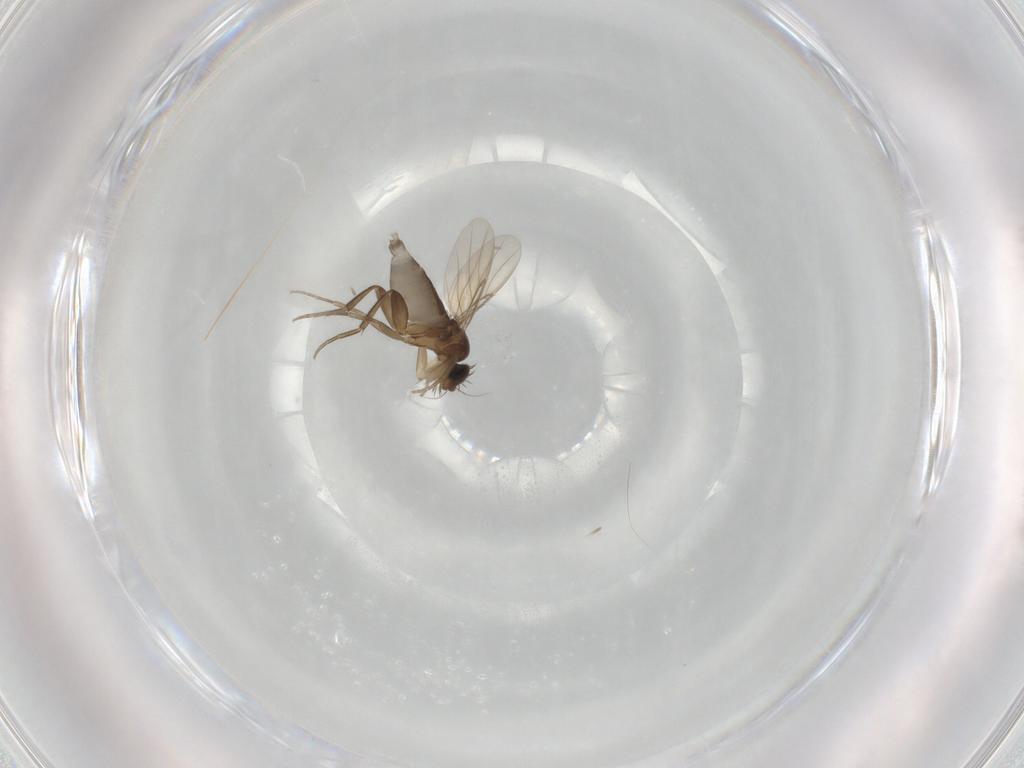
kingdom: Animalia
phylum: Arthropoda
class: Insecta
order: Diptera
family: Phoridae
